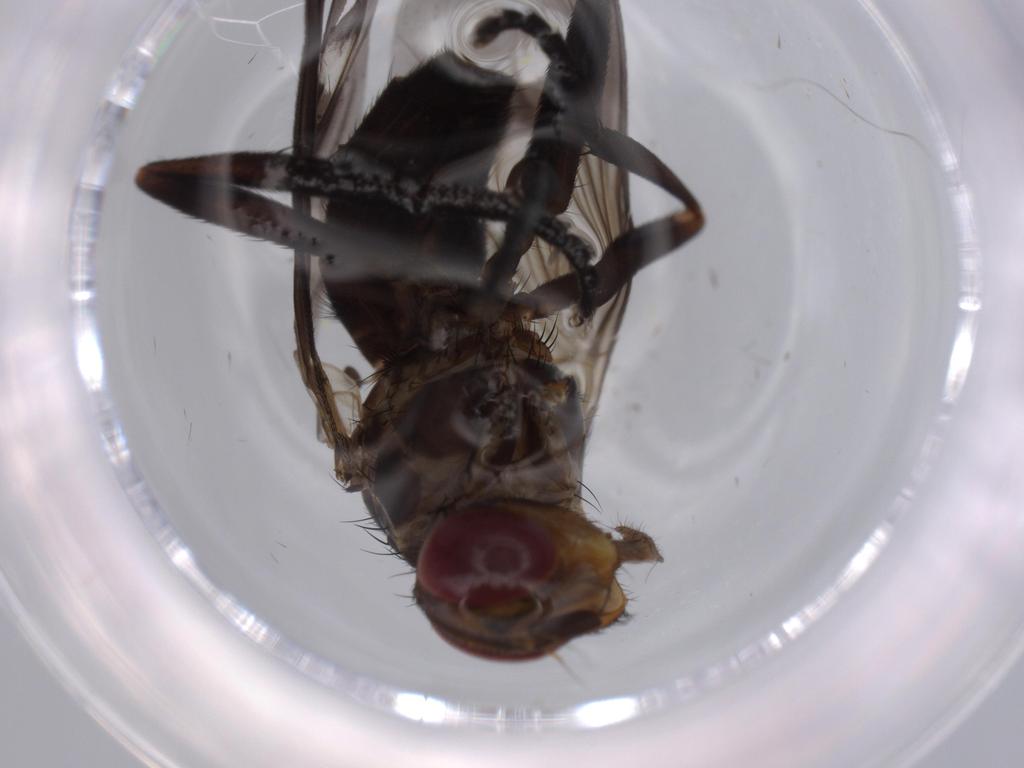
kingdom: Animalia
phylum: Arthropoda
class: Insecta
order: Diptera
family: Calliphoridae
